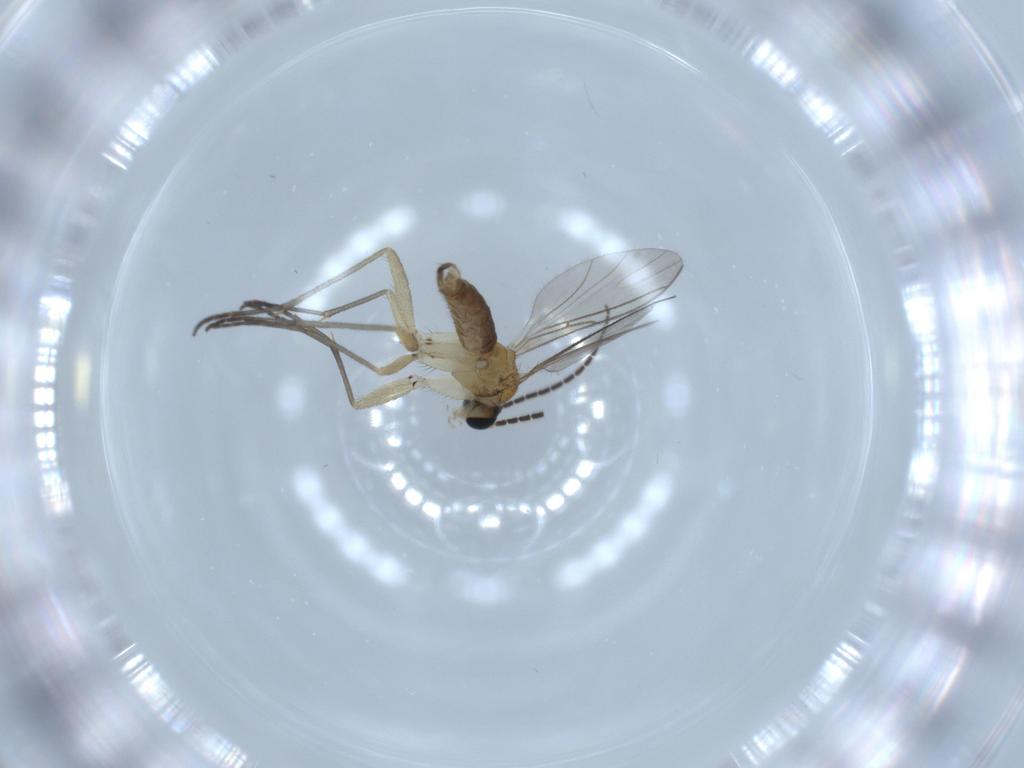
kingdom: Animalia
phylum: Arthropoda
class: Insecta
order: Diptera
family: Sciaridae
